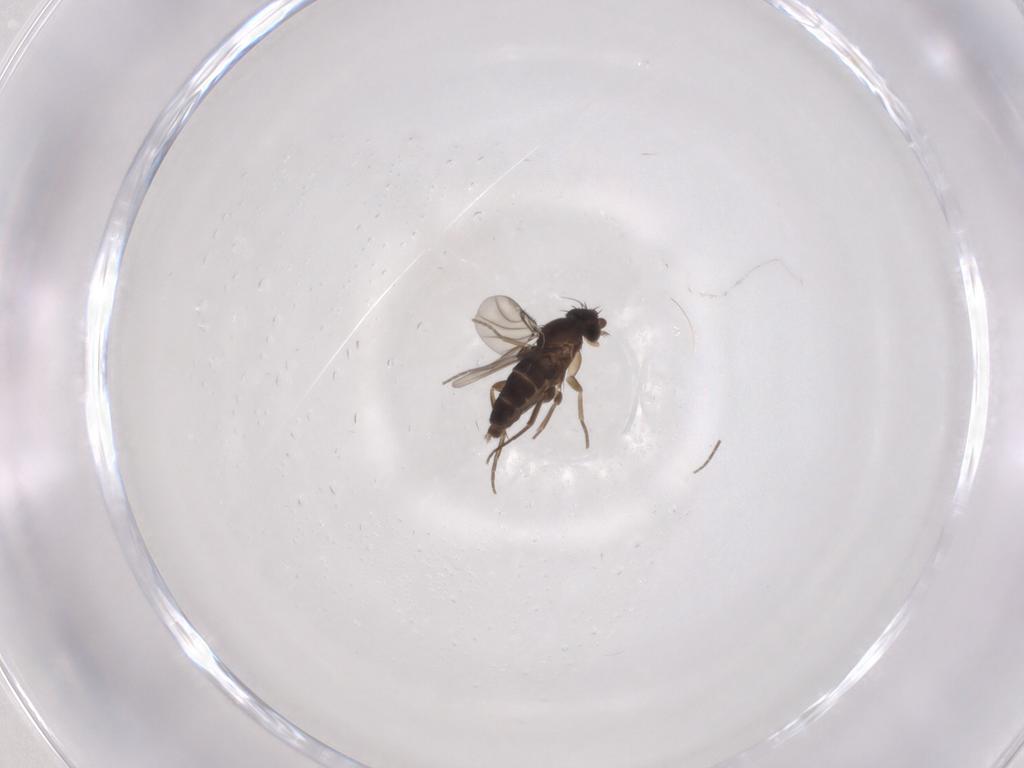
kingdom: Animalia
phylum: Arthropoda
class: Insecta
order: Diptera
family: Phoridae
